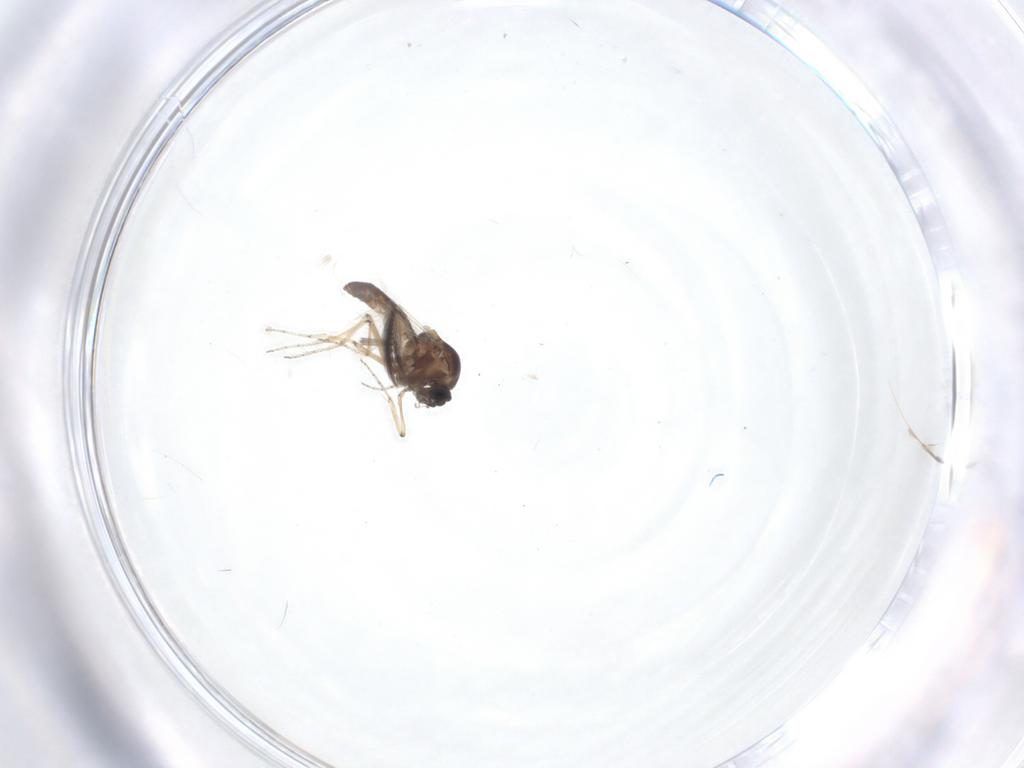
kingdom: Animalia
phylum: Arthropoda
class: Insecta
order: Diptera
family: Ceratopogonidae
